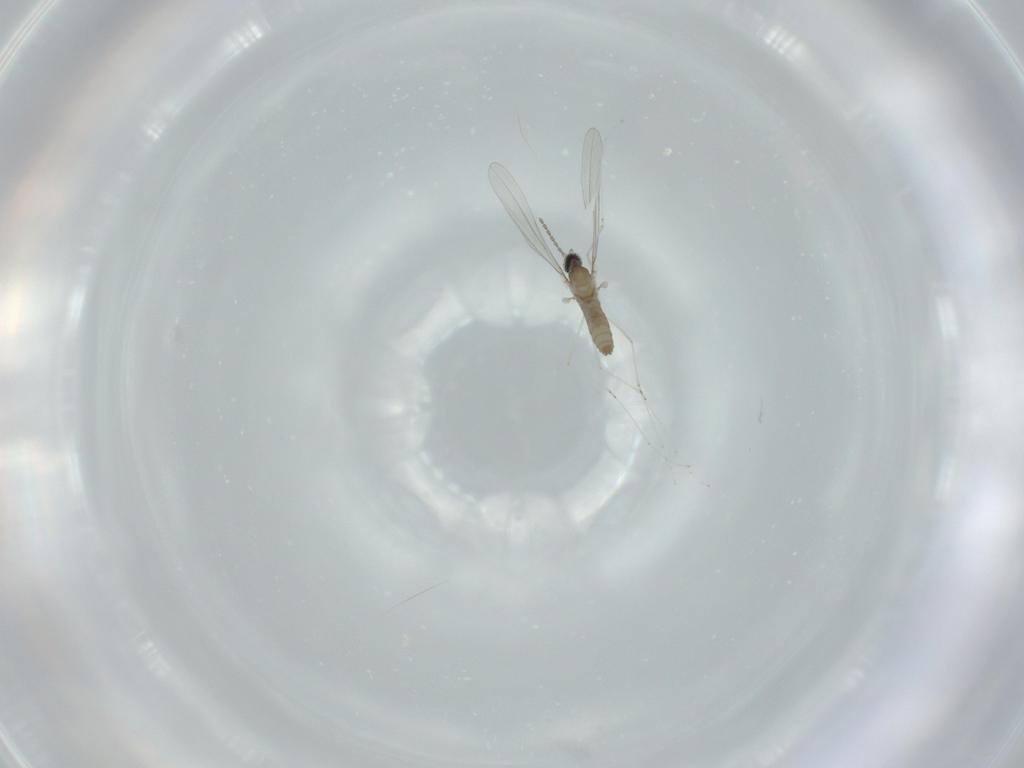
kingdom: Animalia
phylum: Arthropoda
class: Insecta
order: Diptera
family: Cecidomyiidae
